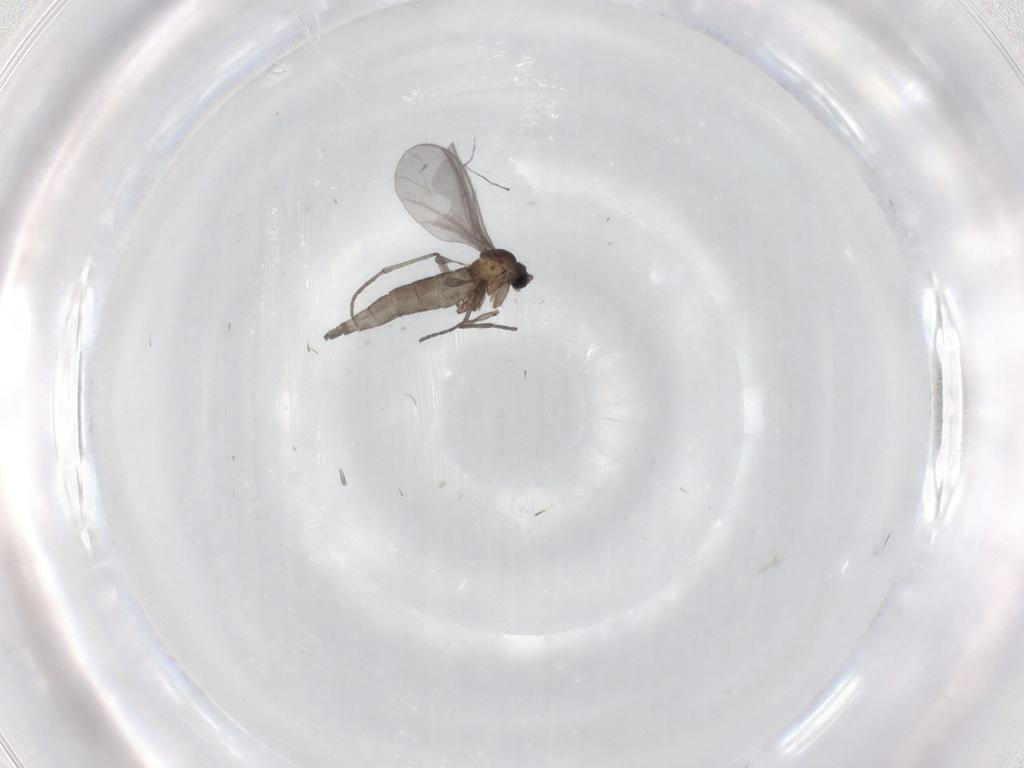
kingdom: Animalia
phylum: Arthropoda
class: Insecta
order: Diptera
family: Sciaridae
